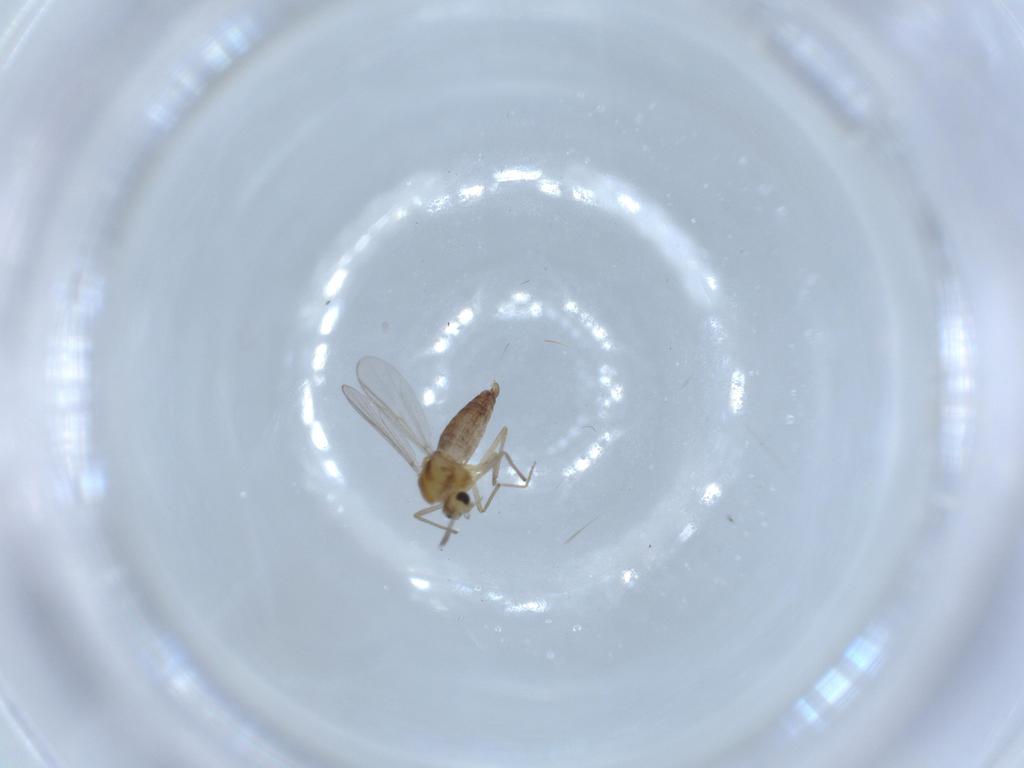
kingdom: Animalia
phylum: Arthropoda
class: Insecta
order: Diptera
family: Chironomidae
